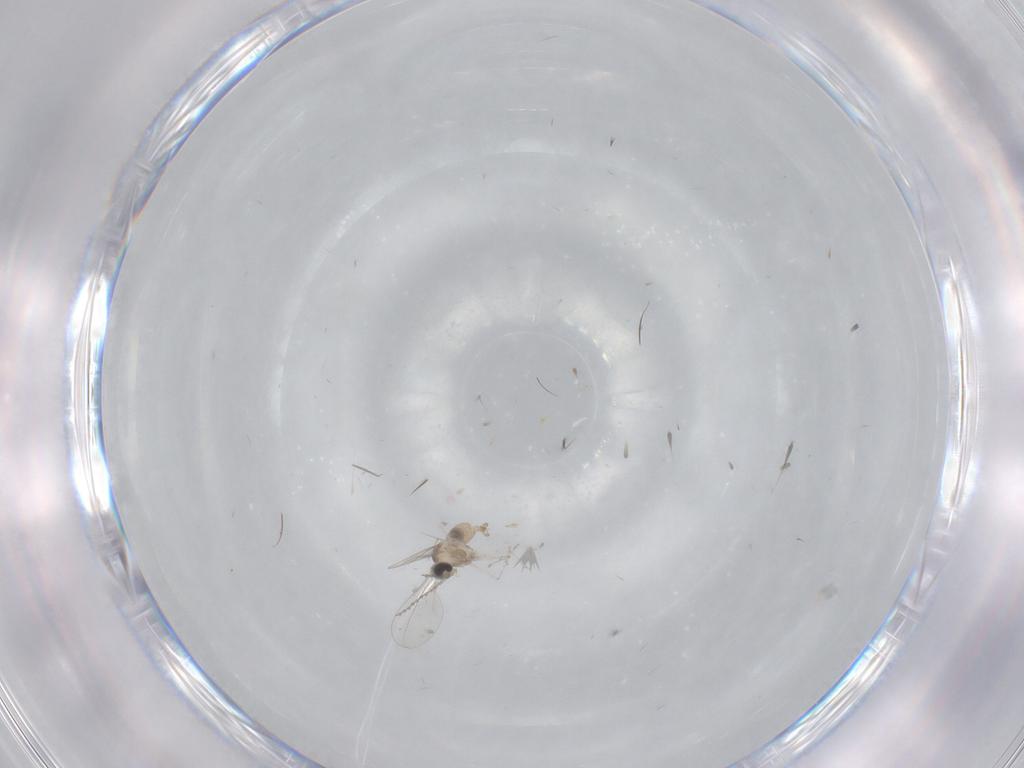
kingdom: Animalia
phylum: Arthropoda
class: Insecta
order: Diptera
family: Cecidomyiidae
